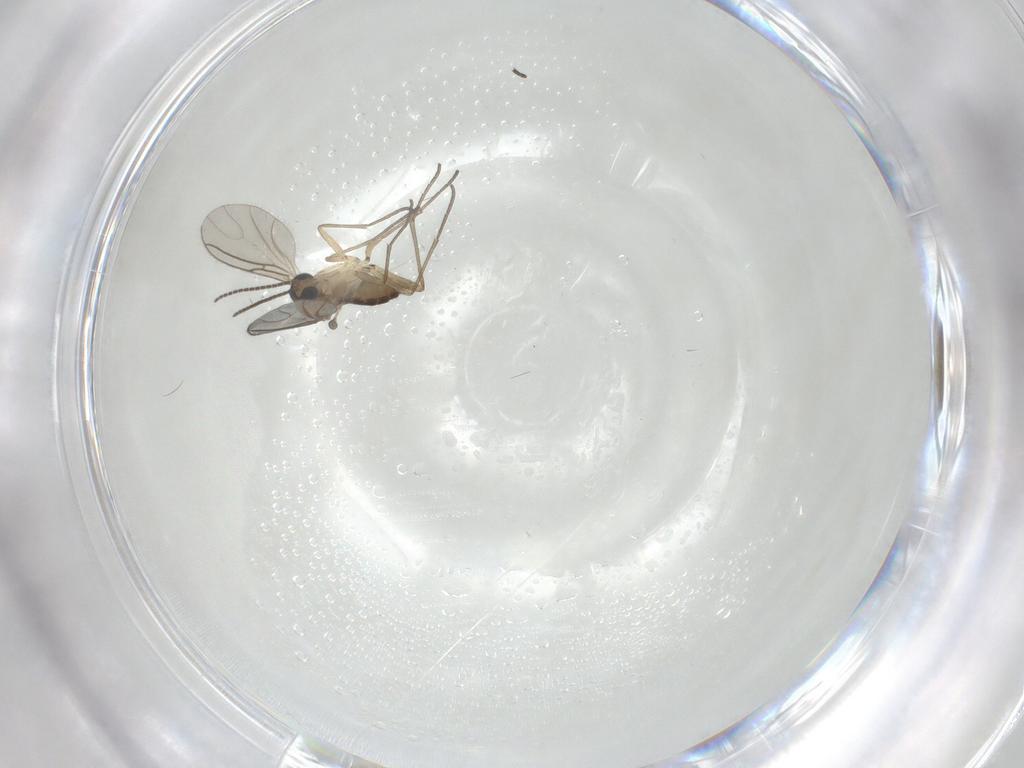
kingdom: Animalia
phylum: Arthropoda
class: Insecta
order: Diptera
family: Sciaridae
